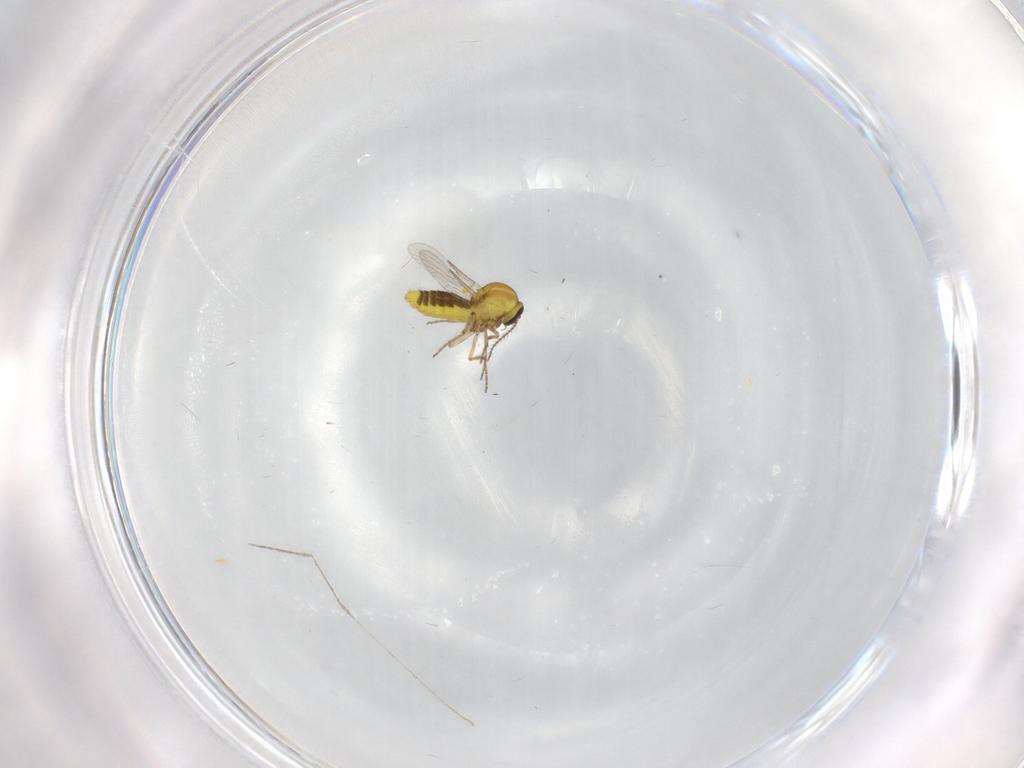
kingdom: Animalia
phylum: Arthropoda
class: Insecta
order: Diptera
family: Ceratopogonidae
